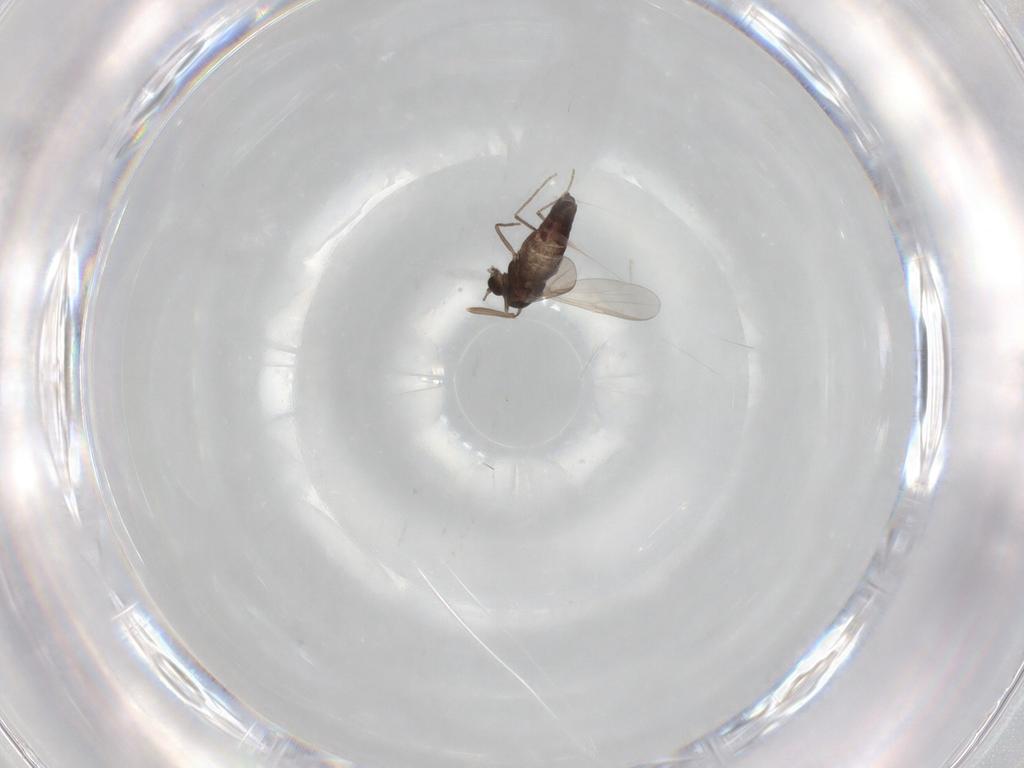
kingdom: Animalia
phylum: Arthropoda
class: Insecta
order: Diptera
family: Chironomidae
